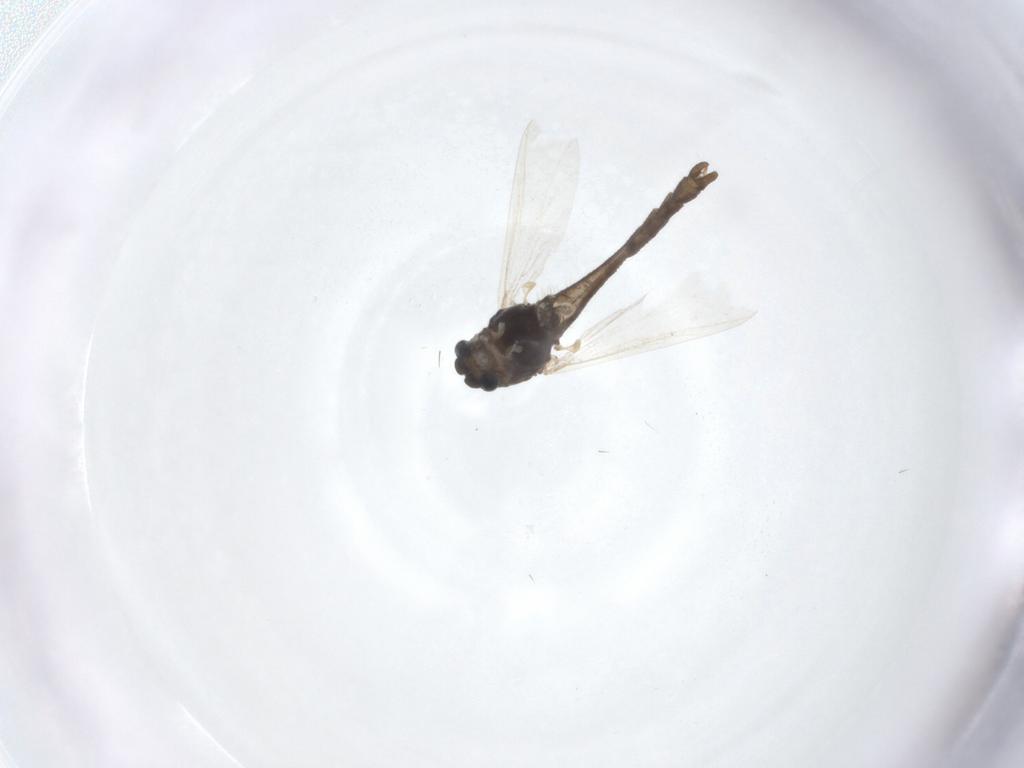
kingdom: Animalia
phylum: Arthropoda
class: Insecta
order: Diptera
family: Chironomidae
